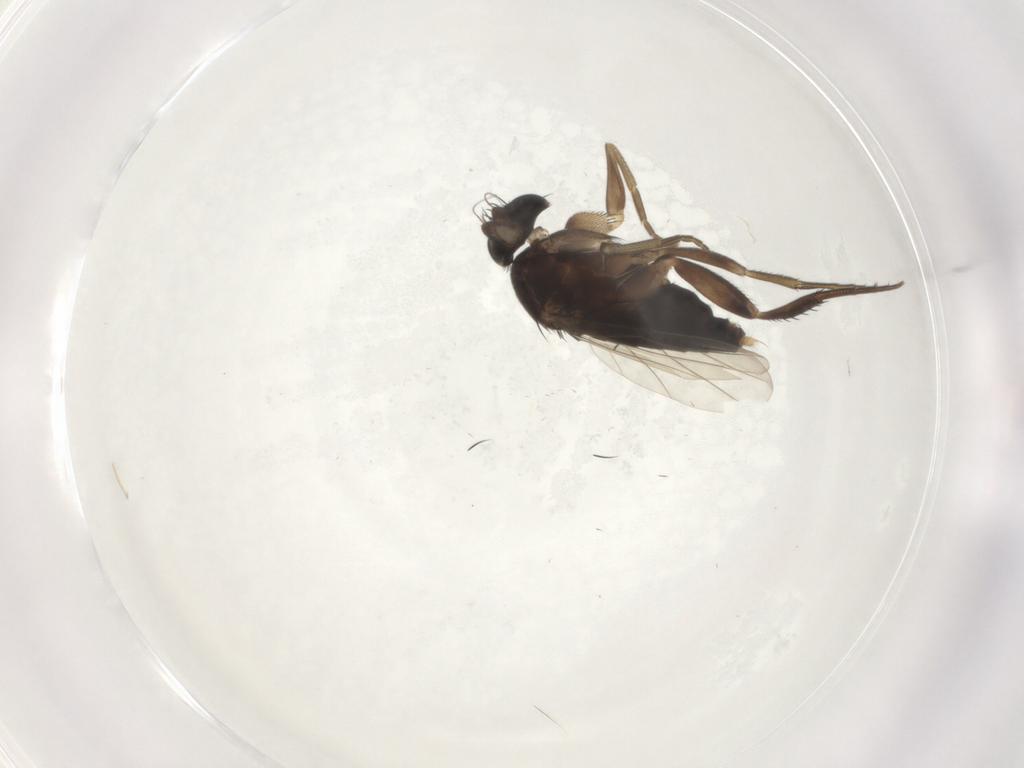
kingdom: Animalia
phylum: Arthropoda
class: Insecta
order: Diptera
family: Phoridae
